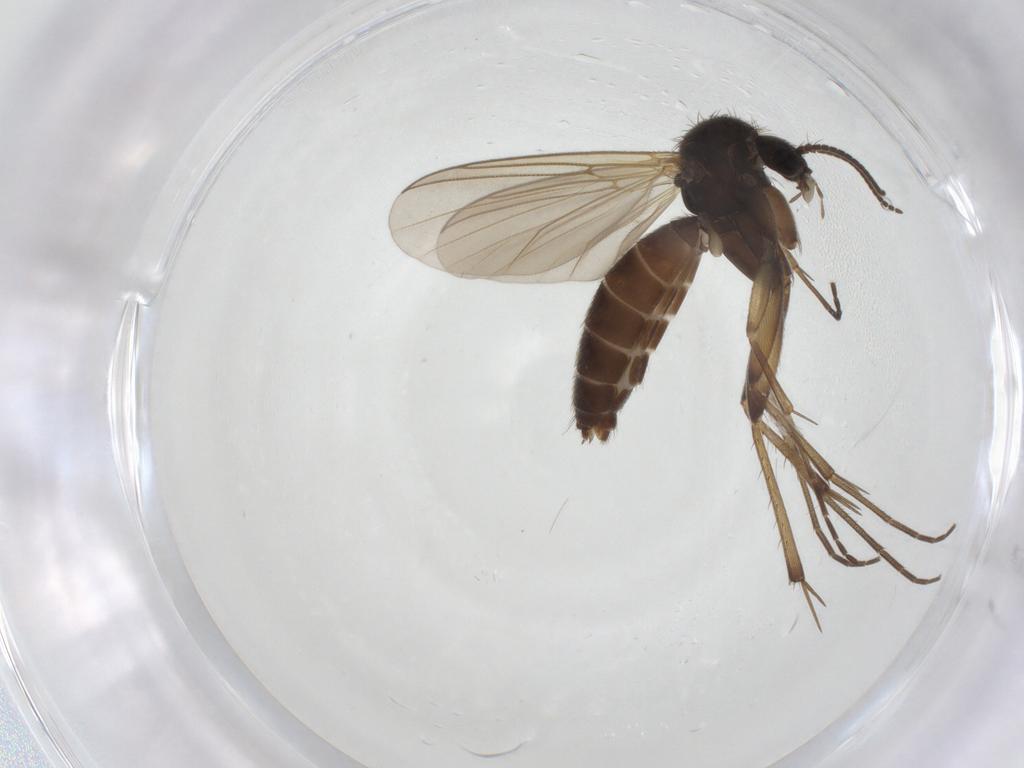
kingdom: Animalia
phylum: Arthropoda
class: Insecta
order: Diptera
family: Mycetophilidae
